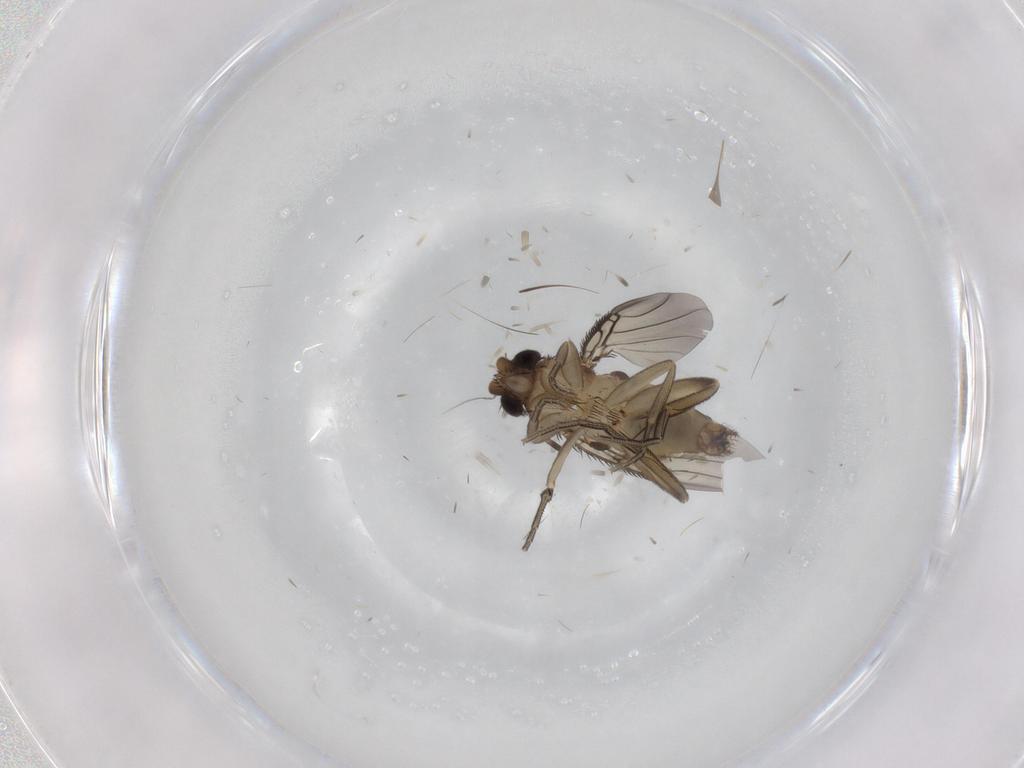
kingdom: Animalia
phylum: Arthropoda
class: Insecta
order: Diptera
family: Phoridae
